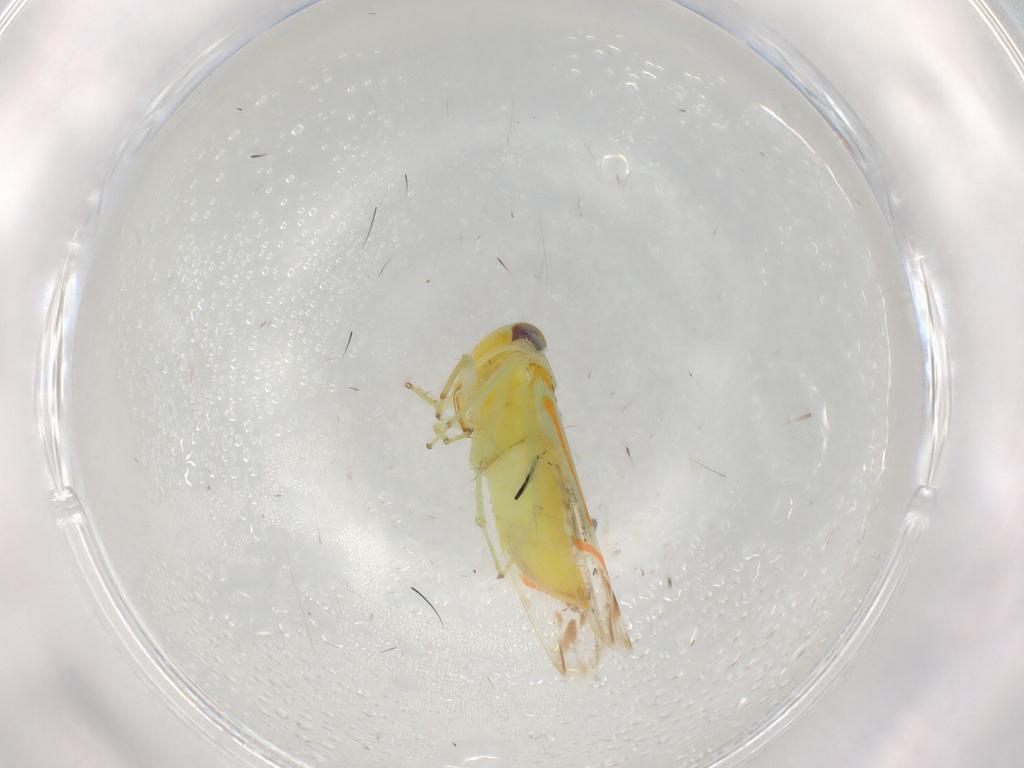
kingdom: Animalia
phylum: Arthropoda
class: Insecta
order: Hemiptera
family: Cicadellidae
